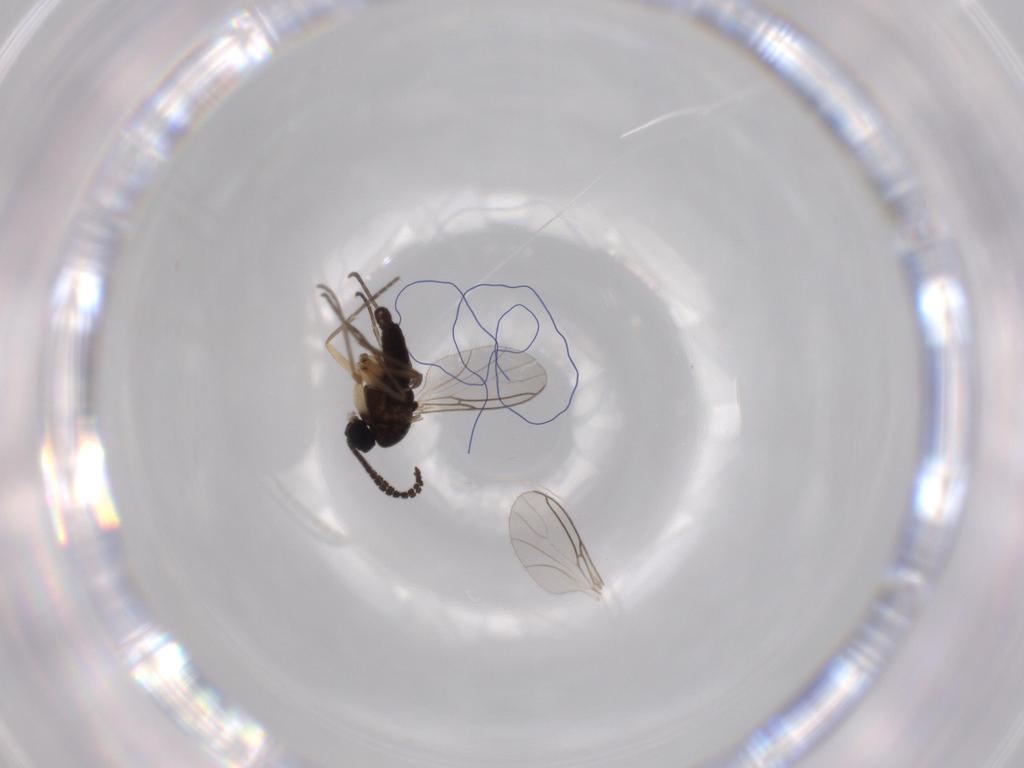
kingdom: Animalia
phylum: Arthropoda
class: Insecta
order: Diptera
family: Sciaridae
